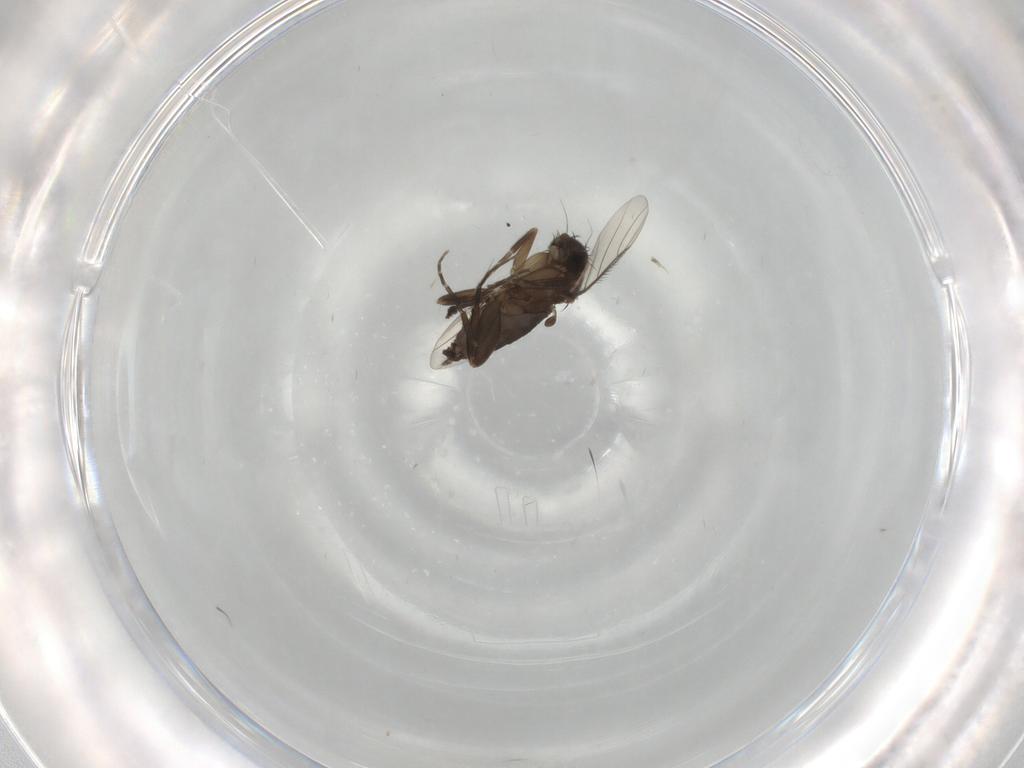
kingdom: Animalia
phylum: Arthropoda
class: Insecta
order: Diptera
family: Phoridae
